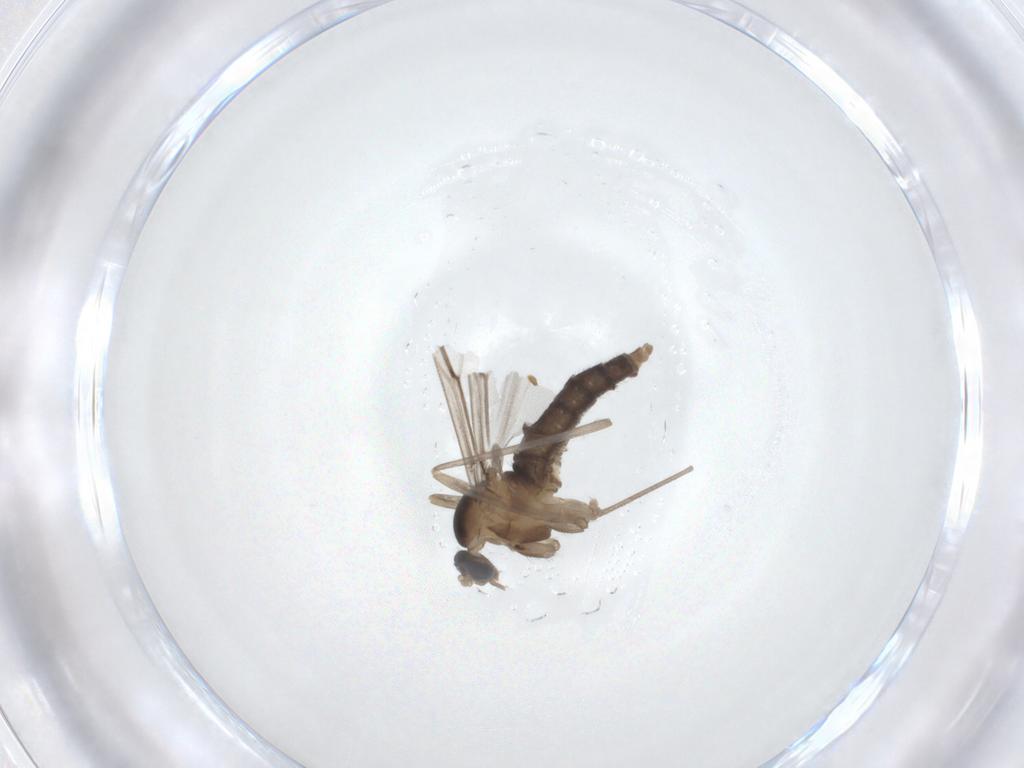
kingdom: Animalia
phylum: Arthropoda
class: Insecta
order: Diptera
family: Cecidomyiidae
